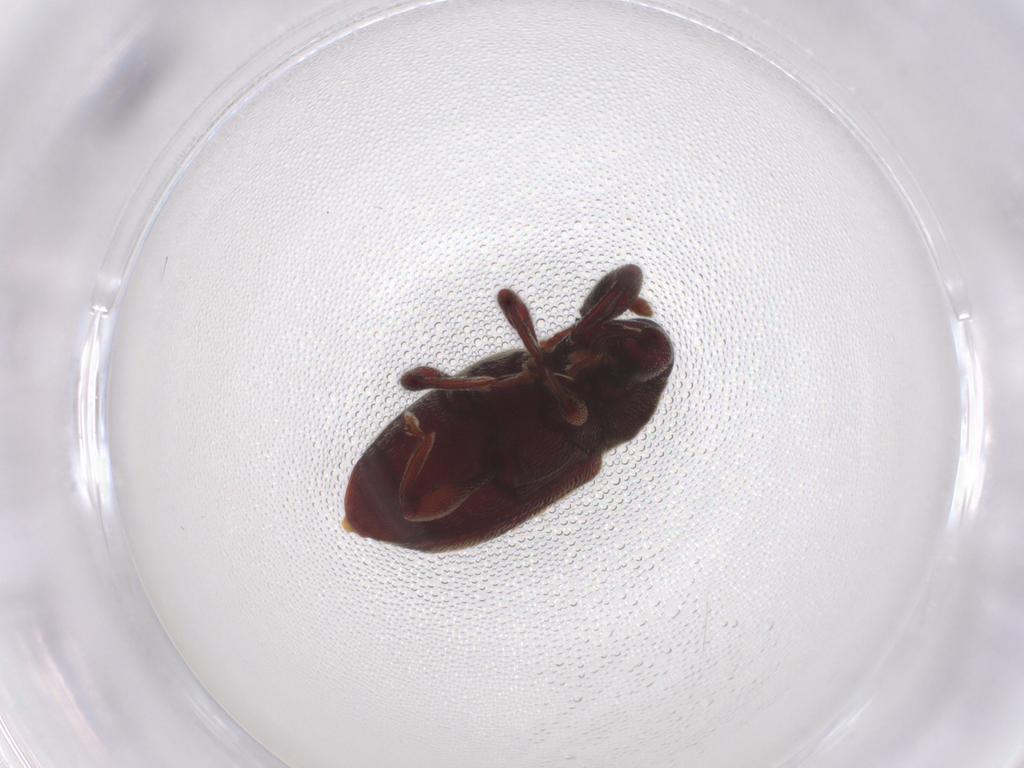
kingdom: Animalia
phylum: Arthropoda
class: Insecta
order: Coleoptera
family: Curculionidae
